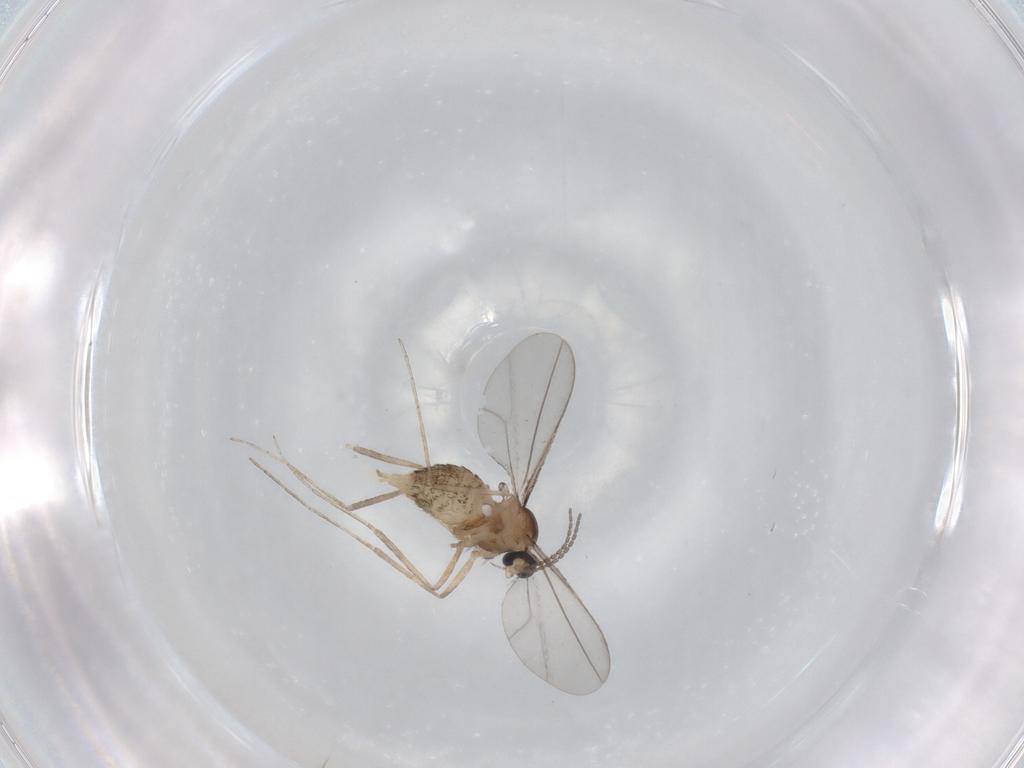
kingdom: Animalia
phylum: Arthropoda
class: Insecta
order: Diptera
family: Cecidomyiidae
